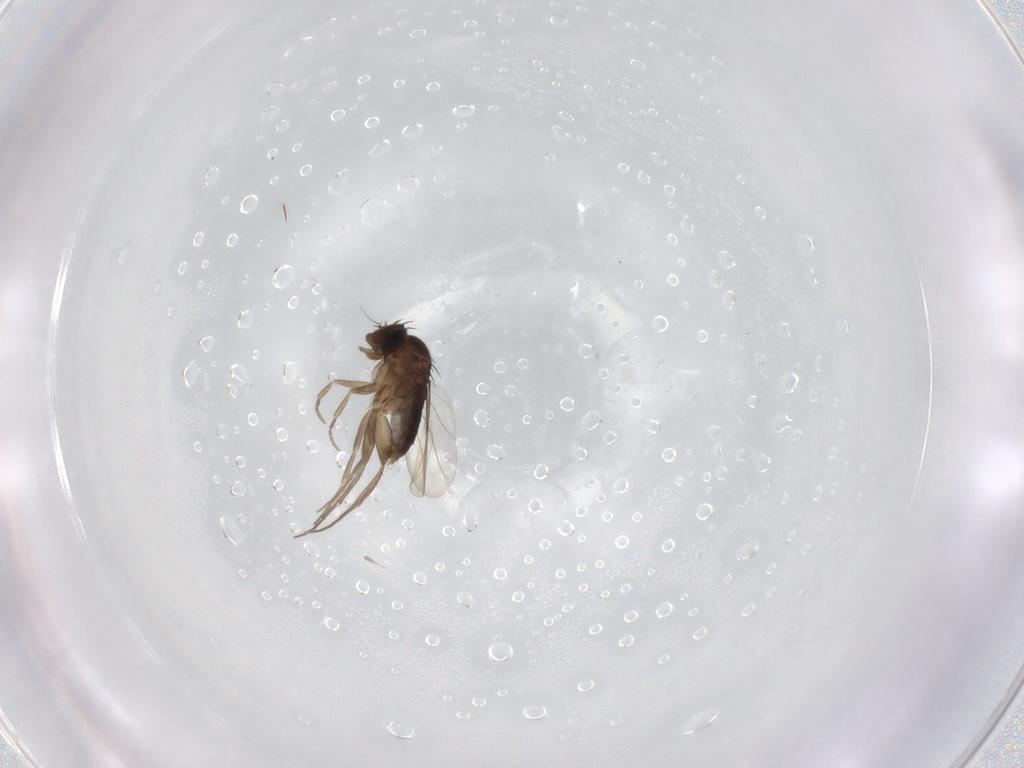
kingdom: Animalia
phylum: Arthropoda
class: Insecta
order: Diptera
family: Phoridae
